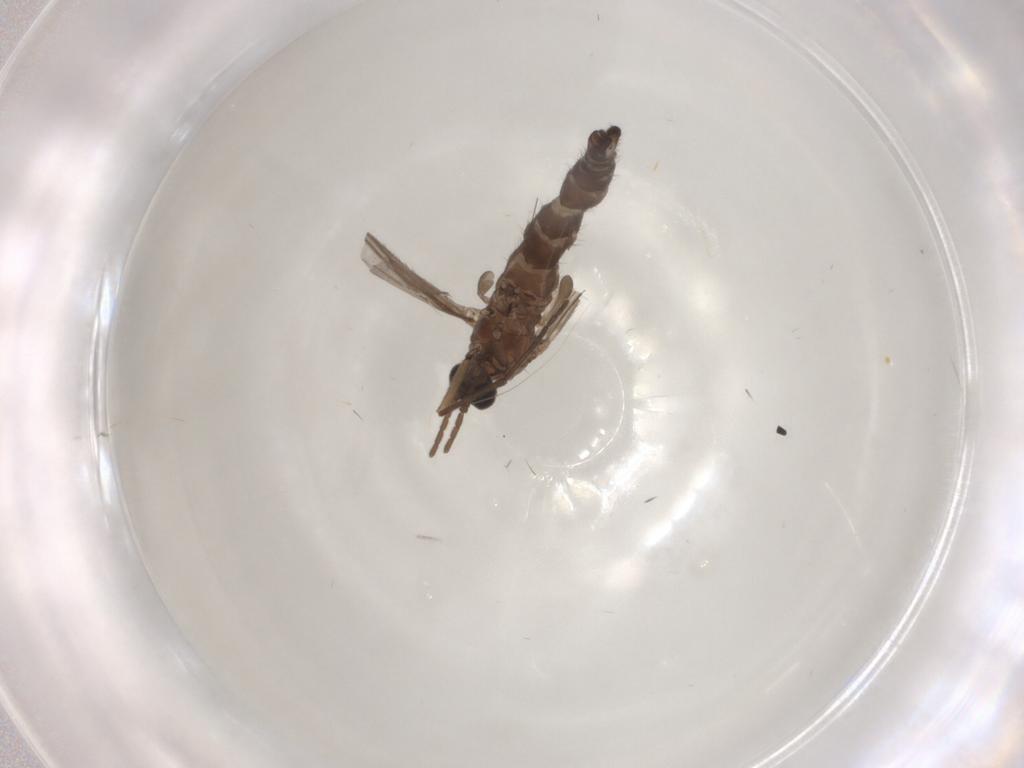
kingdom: Animalia
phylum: Arthropoda
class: Insecta
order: Diptera
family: Sciaridae
